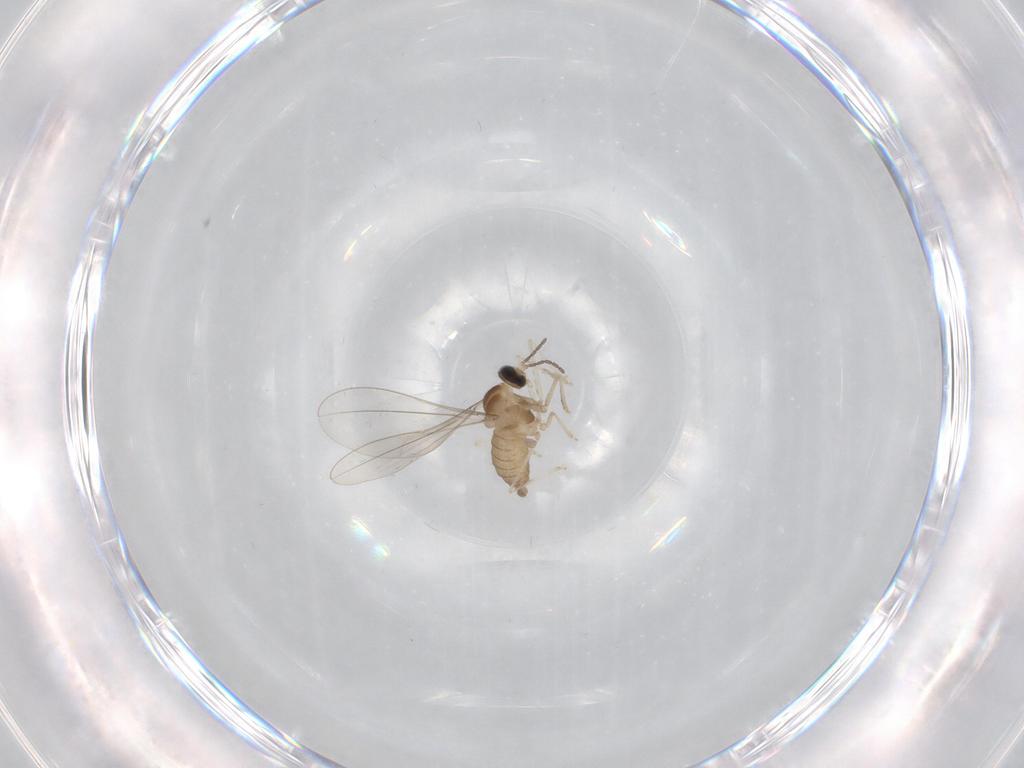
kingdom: Animalia
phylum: Arthropoda
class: Insecta
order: Diptera
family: Cecidomyiidae
